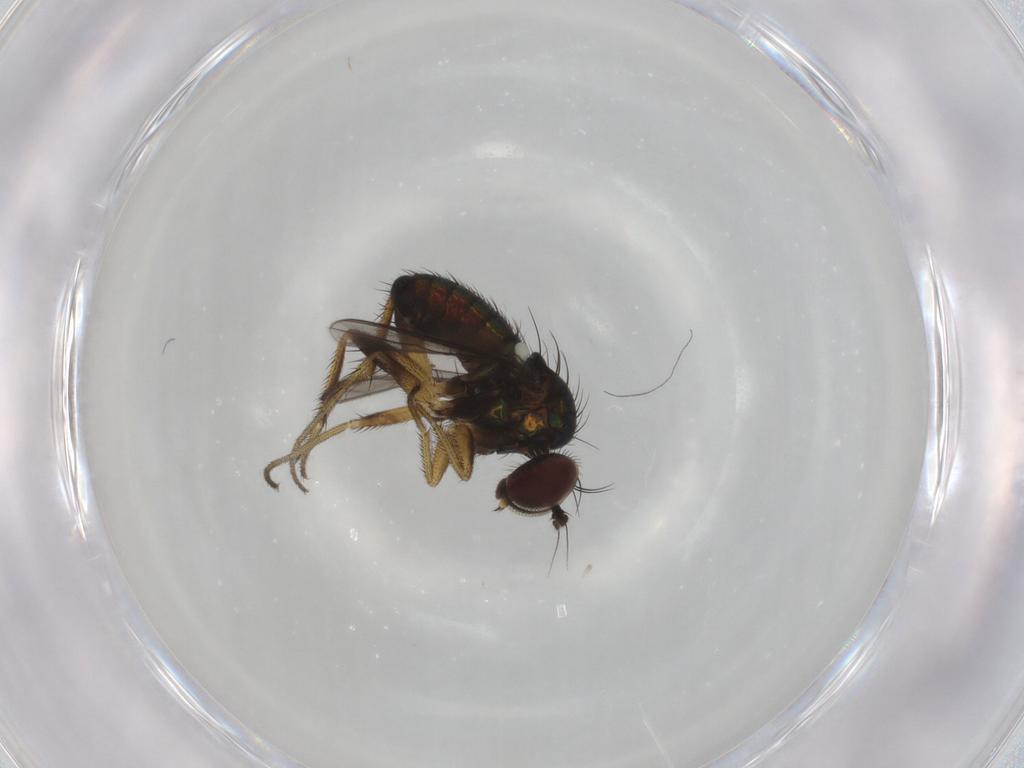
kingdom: Animalia
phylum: Arthropoda
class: Insecta
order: Diptera
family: Dolichopodidae
